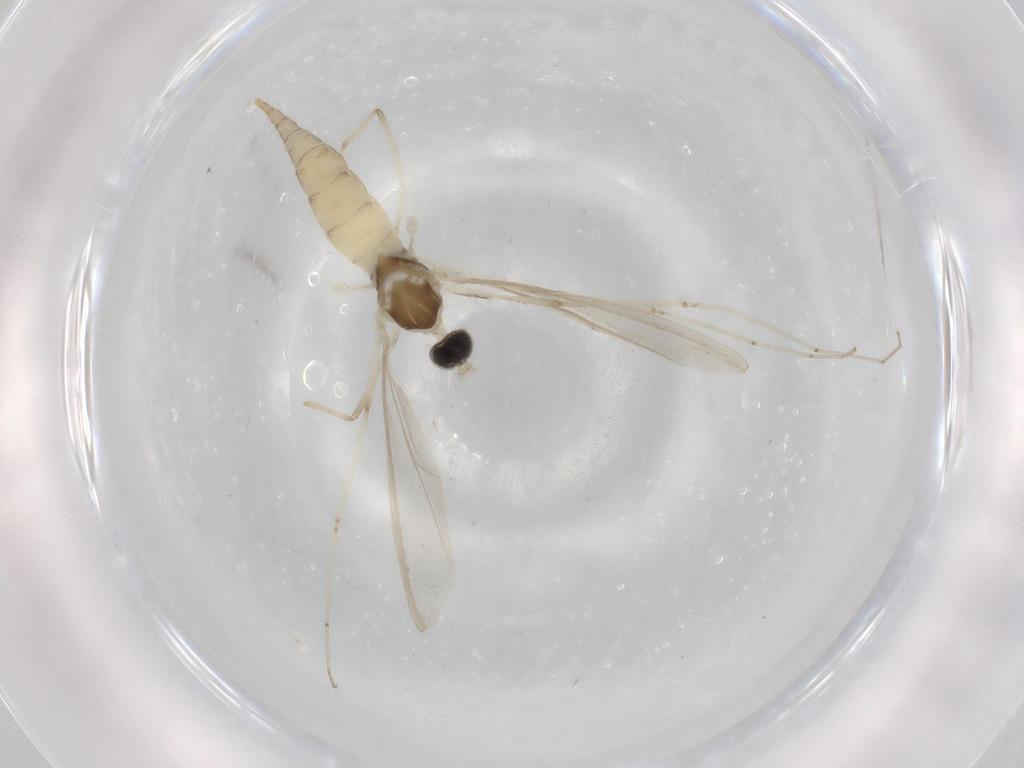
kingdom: Animalia
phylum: Arthropoda
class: Insecta
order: Diptera
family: Cecidomyiidae
